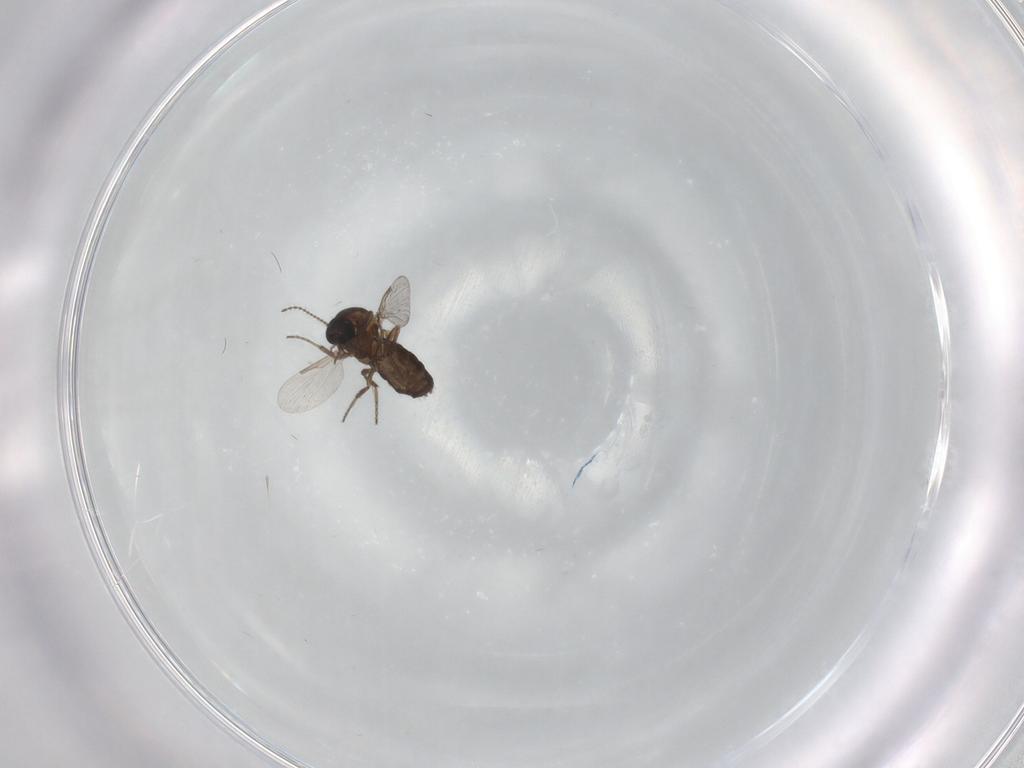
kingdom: Animalia
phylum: Arthropoda
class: Insecta
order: Diptera
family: Ceratopogonidae
